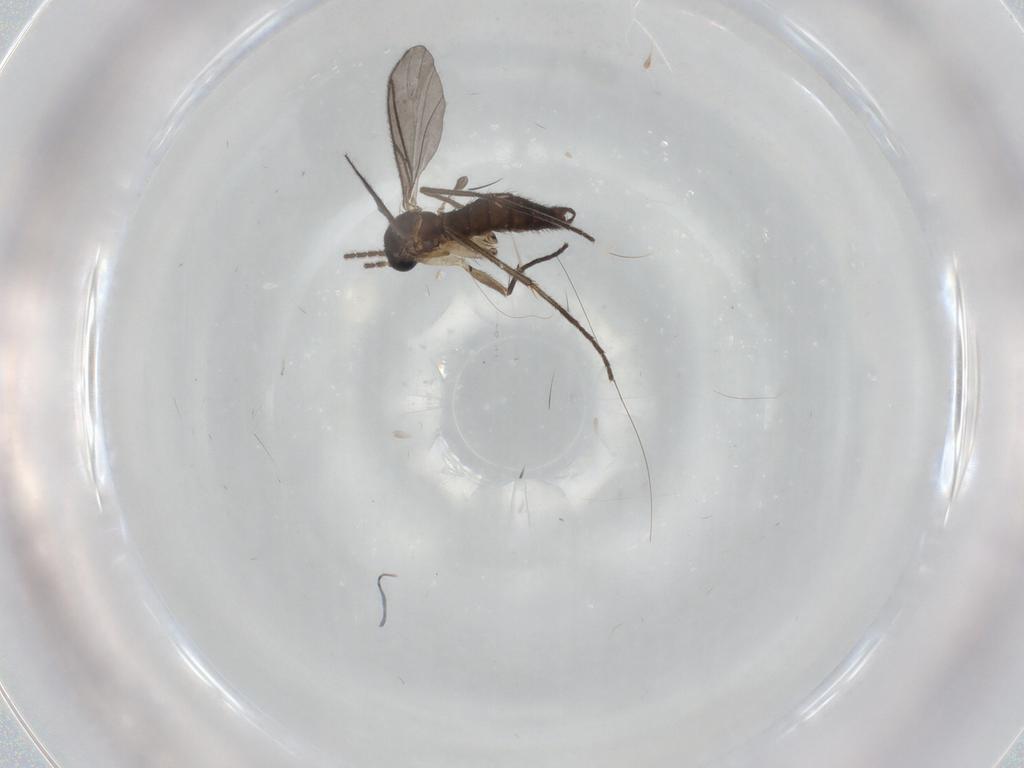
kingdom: Animalia
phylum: Arthropoda
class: Insecta
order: Diptera
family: Sciaridae
